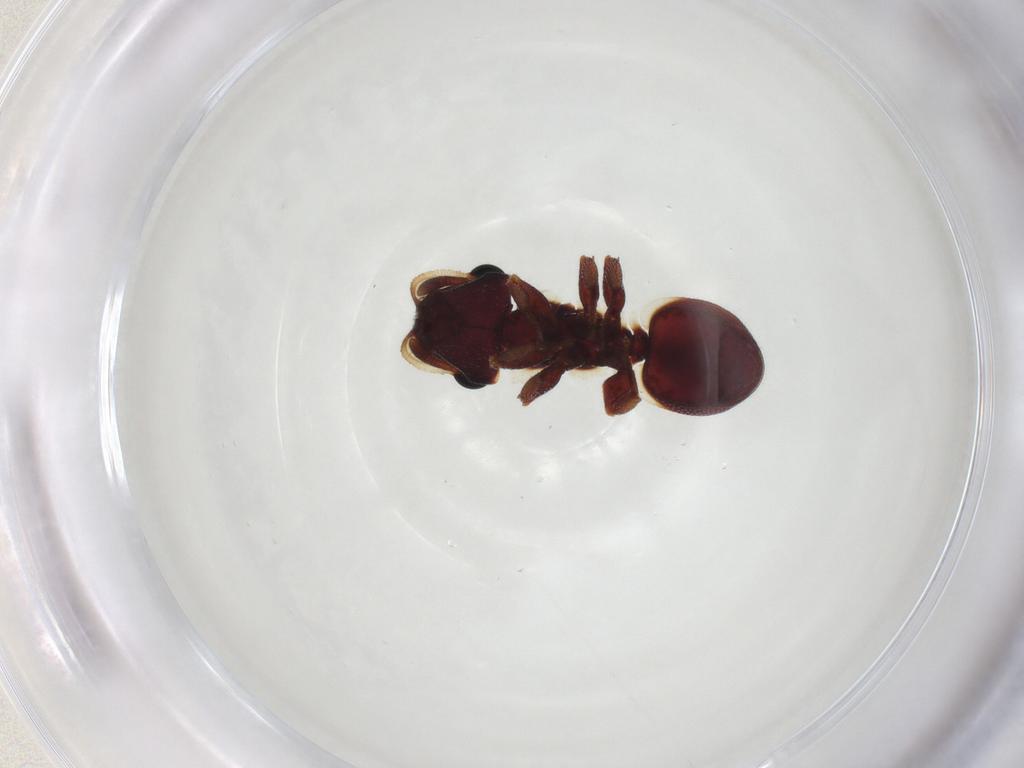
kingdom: Animalia
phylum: Arthropoda
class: Insecta
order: Hymenoptera
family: Formicidae
